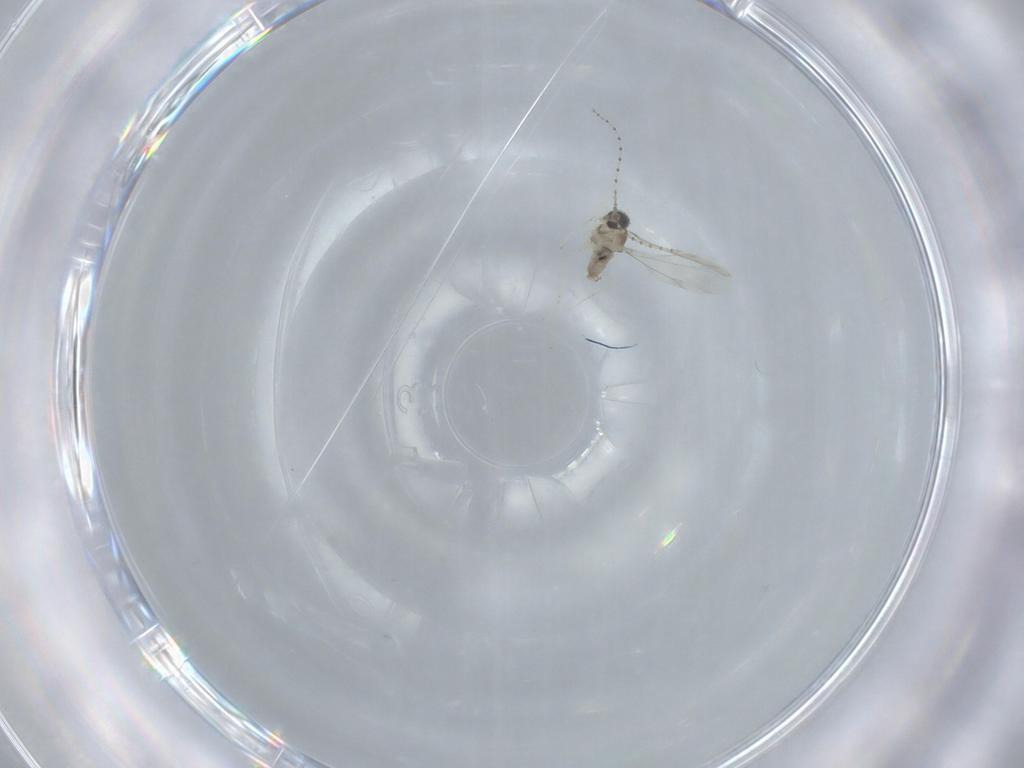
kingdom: Animalia
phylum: Arthropoda
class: Insecta
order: Diptera
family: Cecidomyiidae
